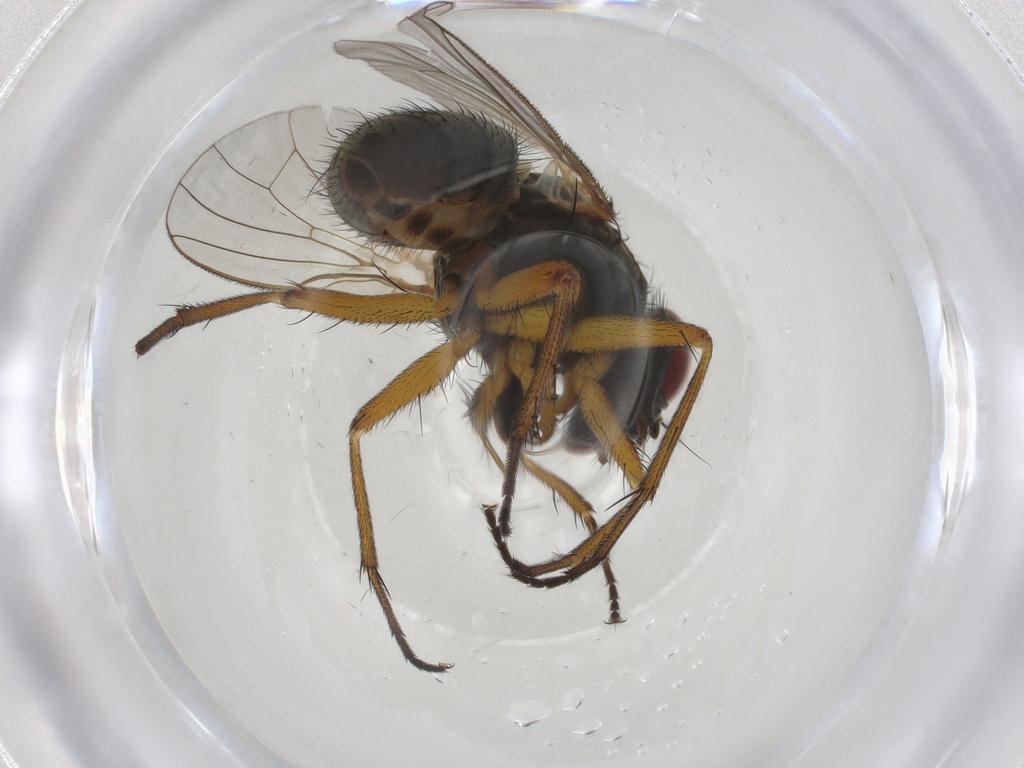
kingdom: Animalia
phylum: Arthropoda
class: Insecta
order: Diptera
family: Muscidae
